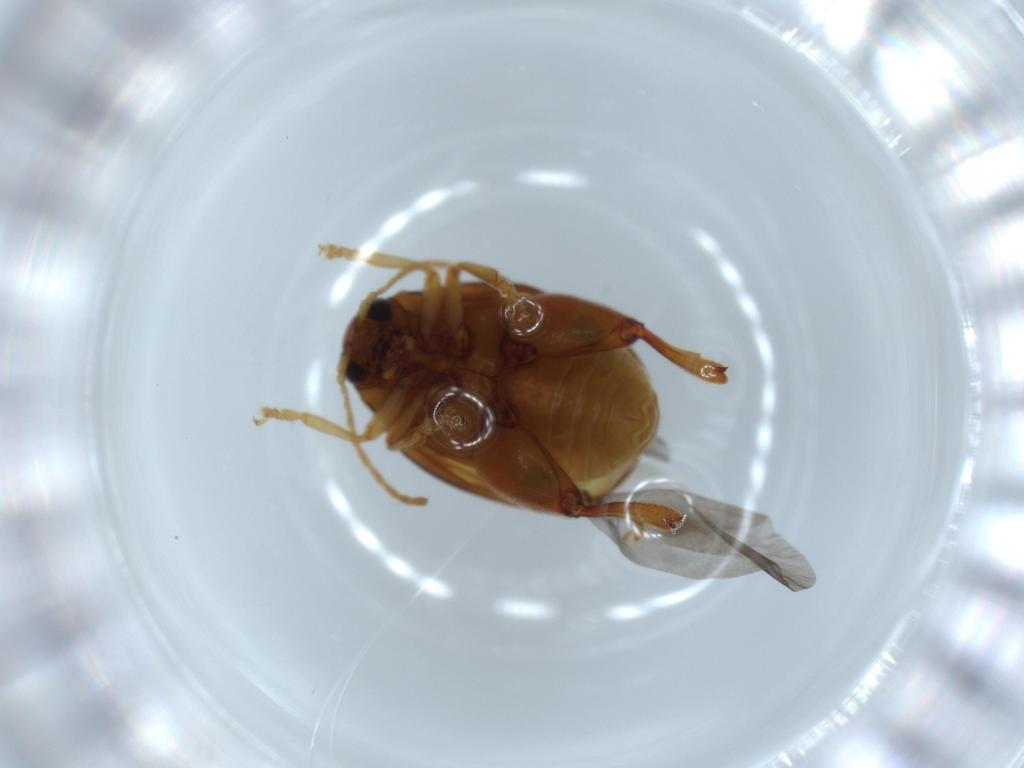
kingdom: Animalia
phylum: Arthropoda
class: Insecta
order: Coleoptera
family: Chrysomelidae
